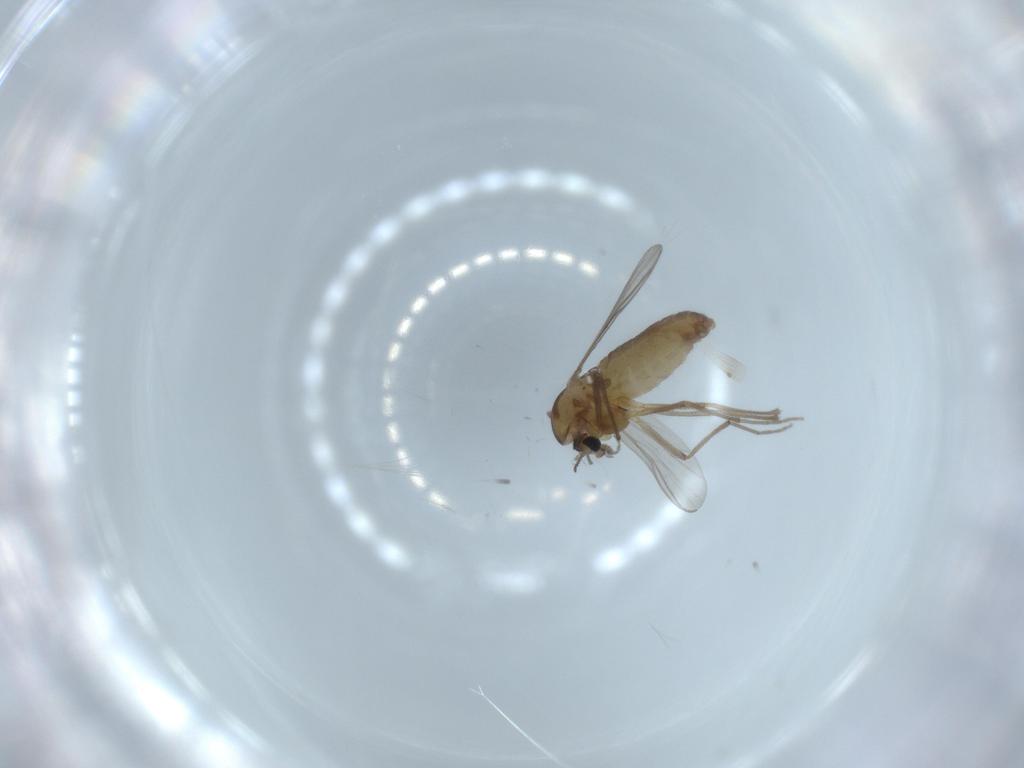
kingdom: Animalia
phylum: Arthropoda
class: Insecta
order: Diptera
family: Chironomidae
